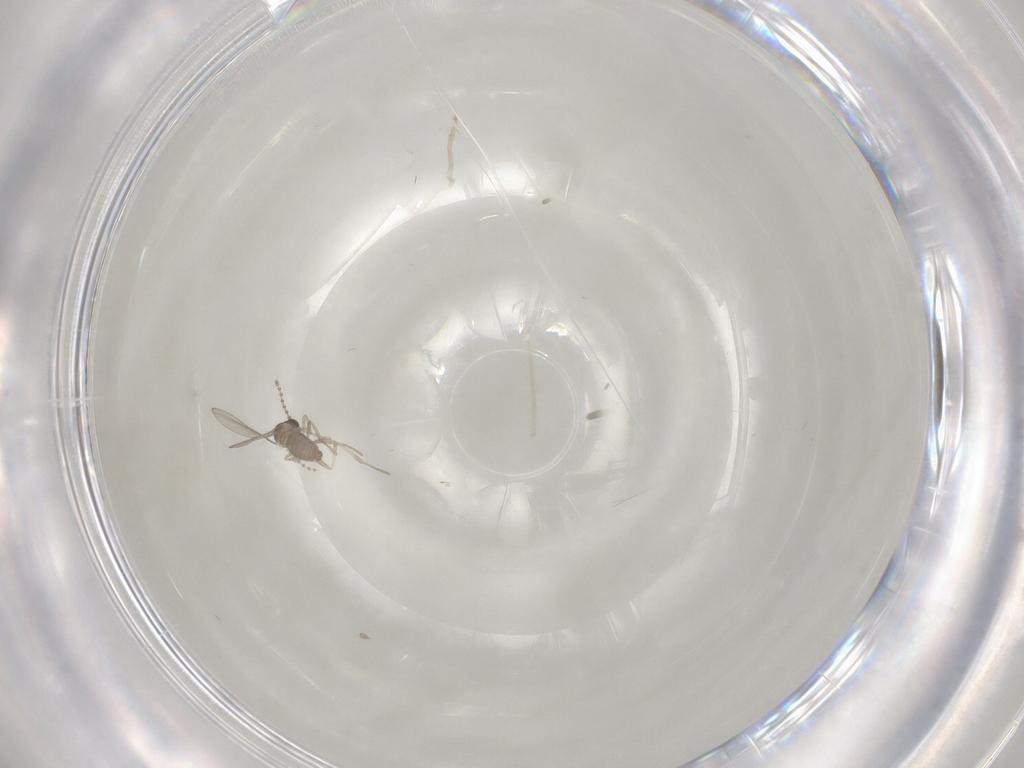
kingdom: Animalia
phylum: Arthropoda
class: Insecta
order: Diptera
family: Cecidomyiidae
